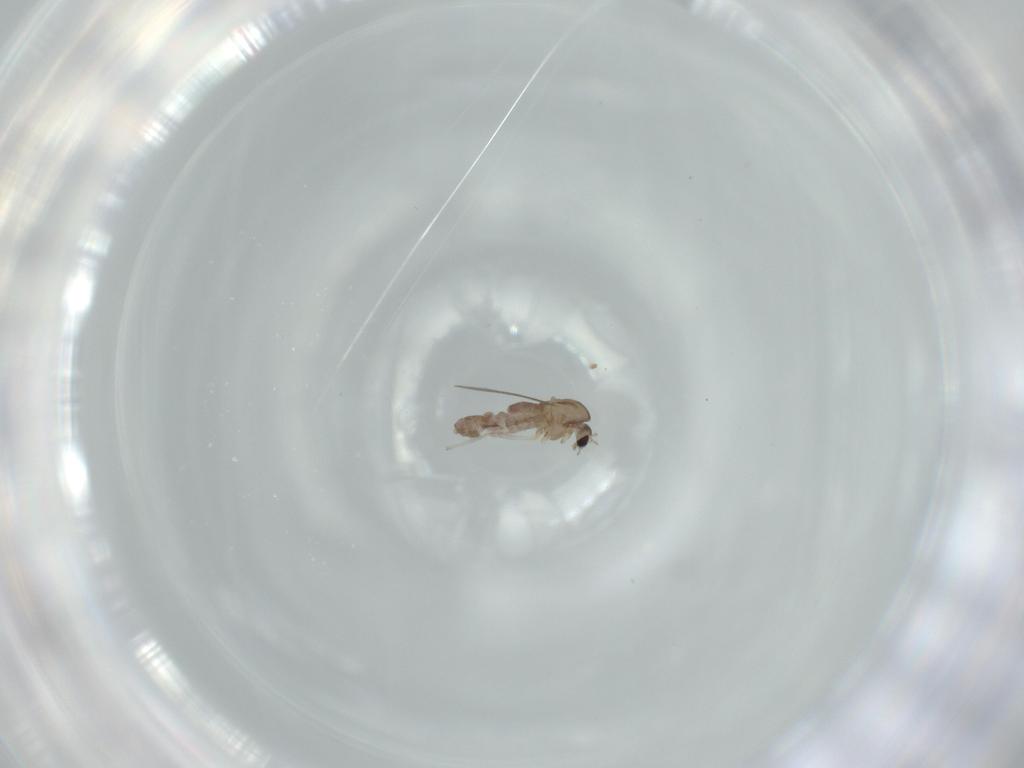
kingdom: Animalia
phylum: Arthropoda
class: Insecta
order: Diptera
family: Chironomidae
